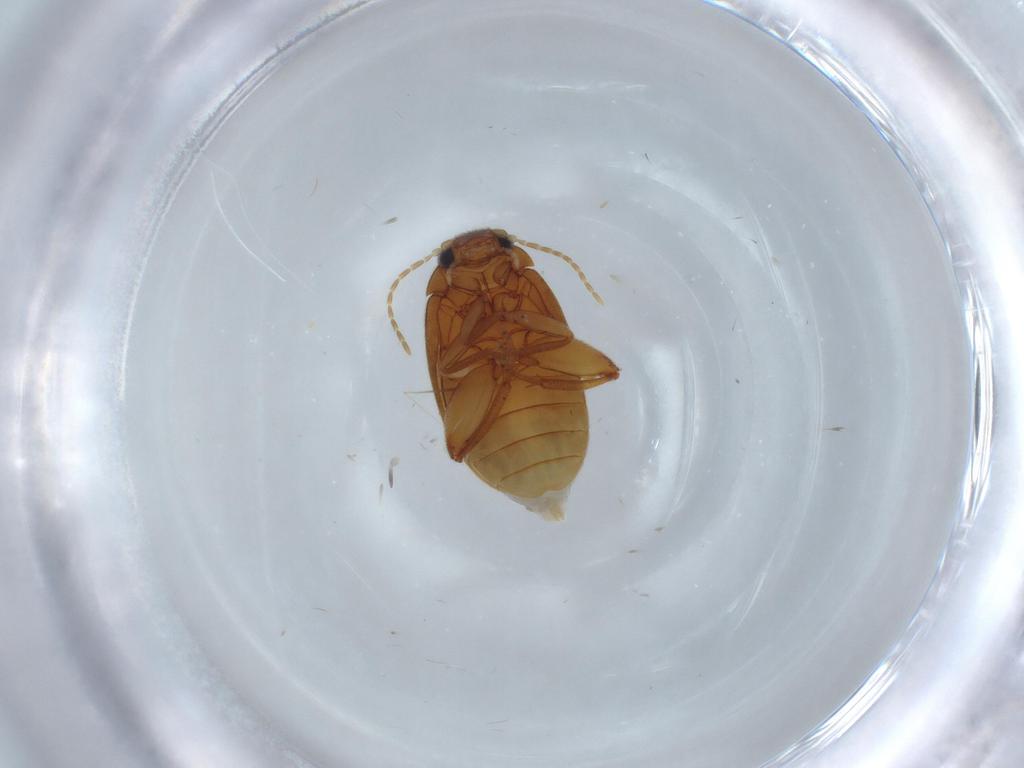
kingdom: Animalia
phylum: Arthropoda
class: Insecta
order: Coleoptera
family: Scirtidae
